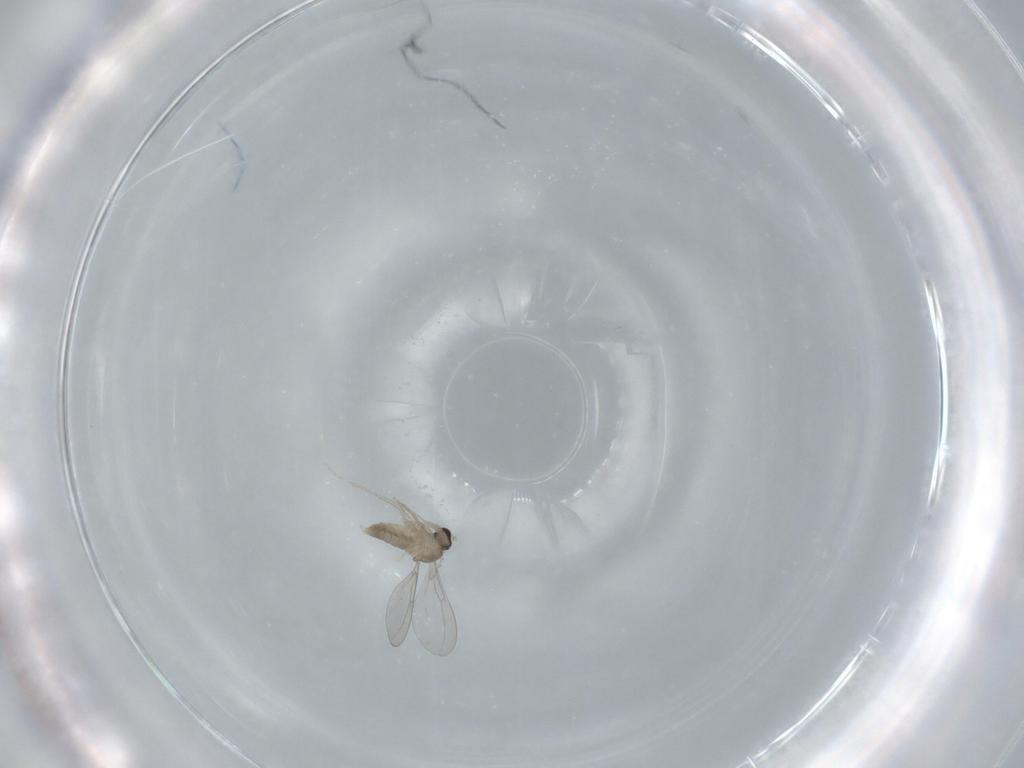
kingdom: Animalia
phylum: Arthropoda
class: Insecta
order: Diptera
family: Cecidomyiidae
